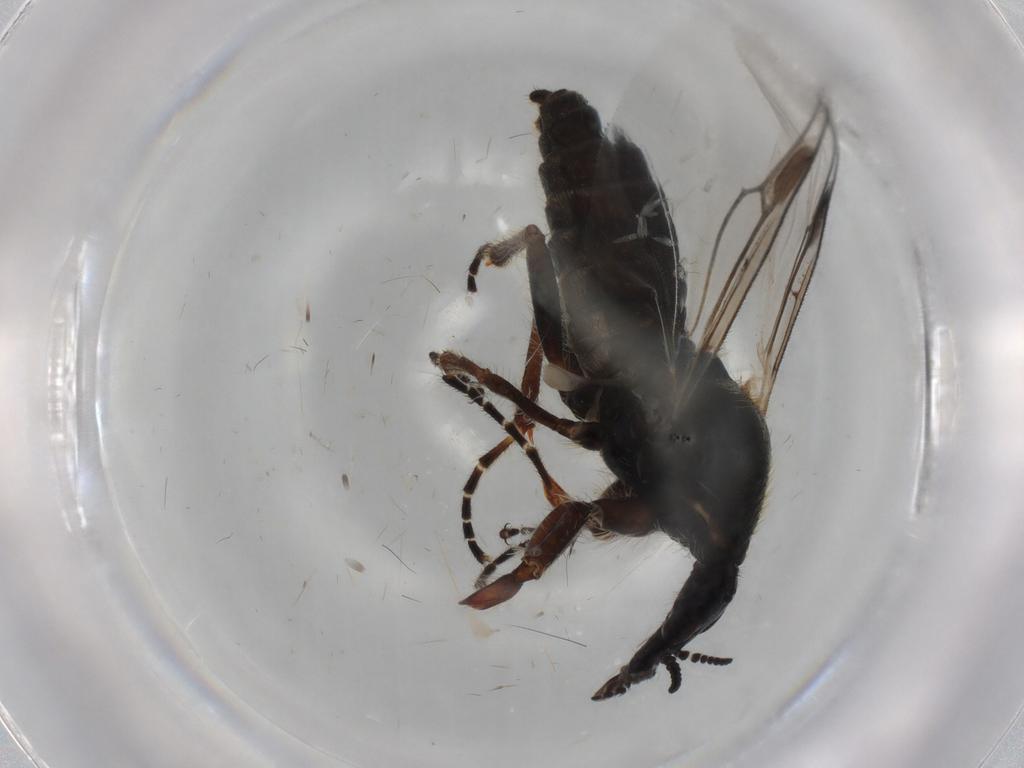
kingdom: Animalia
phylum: Arthropoda
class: Insecta
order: Diptera
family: Bibionidae
